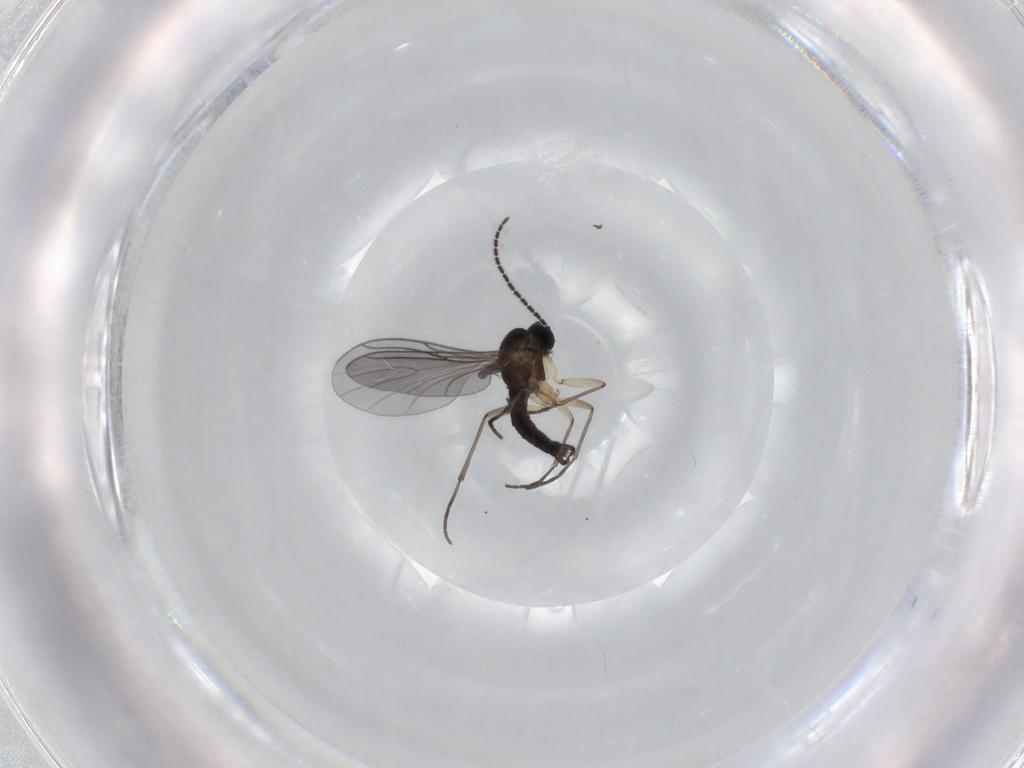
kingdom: Animalia
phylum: Arthropoda
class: Insecta
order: Diptera
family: Sciaridae
